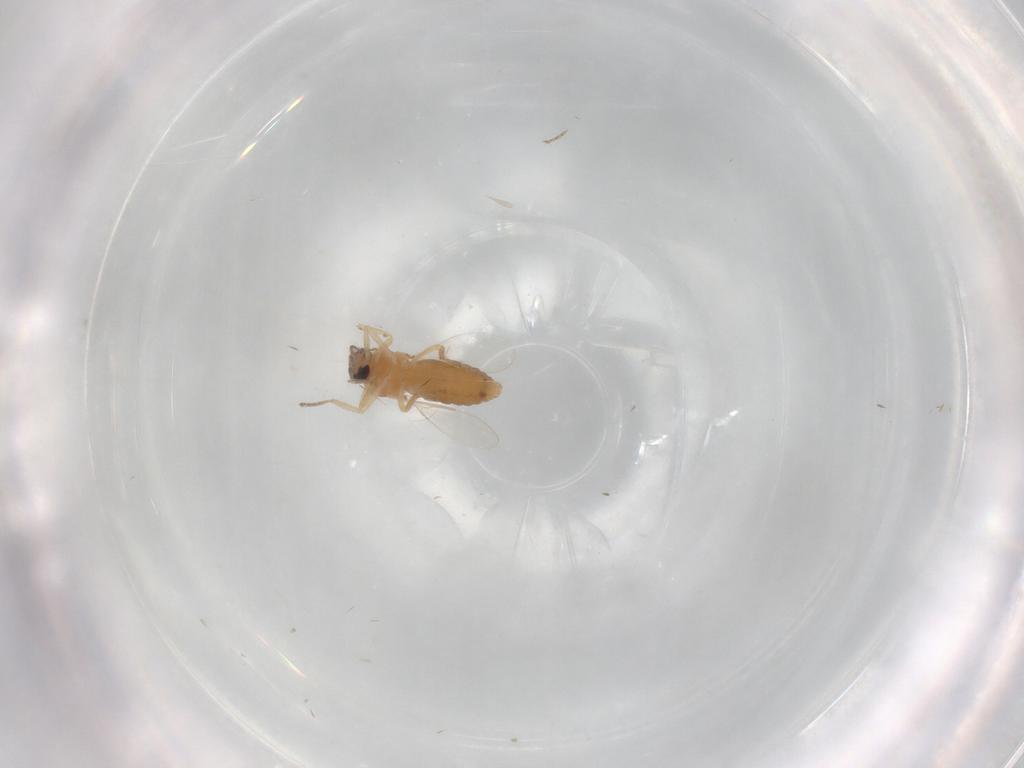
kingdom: Animalia
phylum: Arthropoda
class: Insecta
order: Diptera
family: Ceratopogonidae
